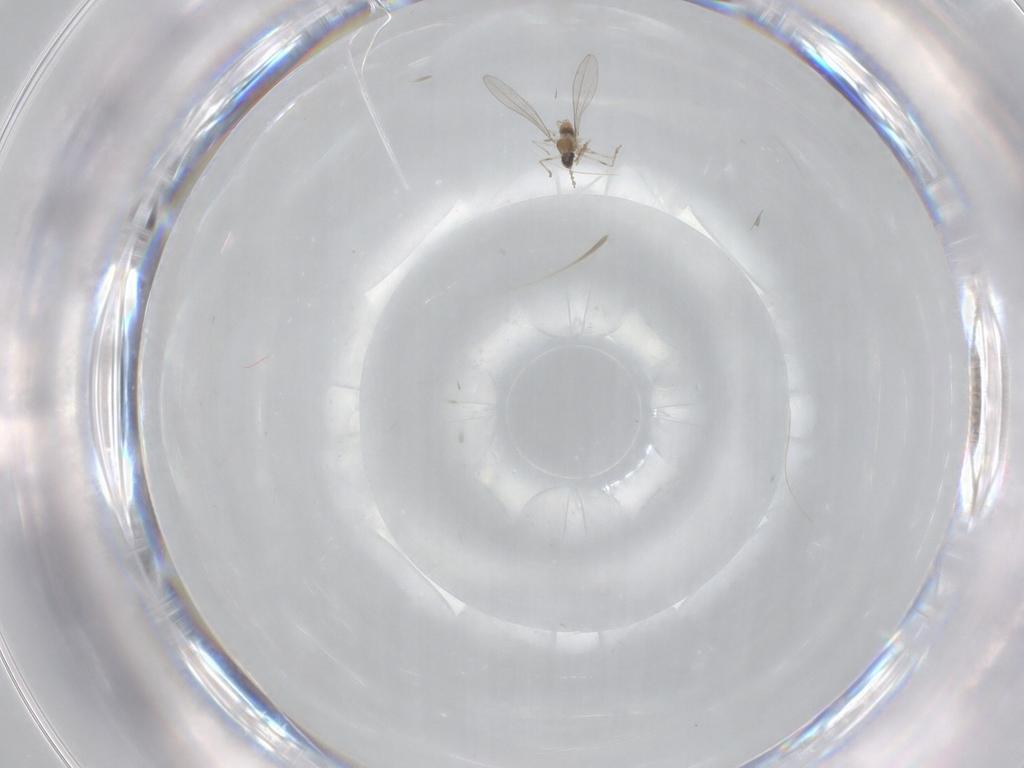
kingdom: Animalia
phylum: Arthropoda
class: Insecta
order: Diptera
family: Cecidomyiidae
